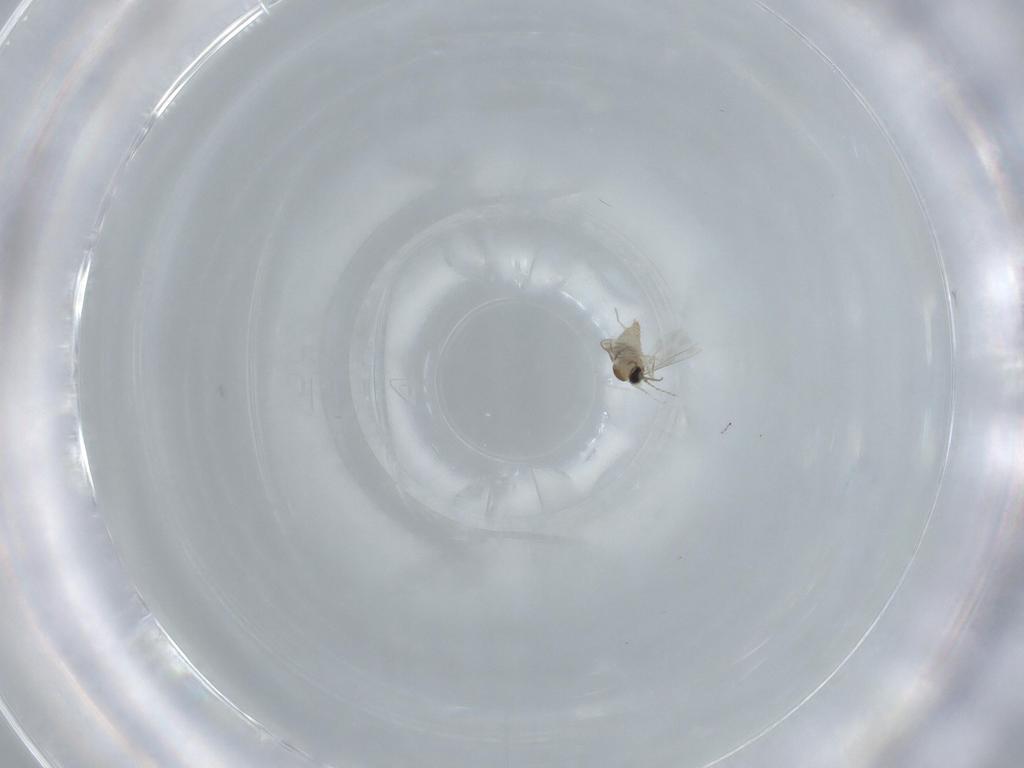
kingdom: Animalia
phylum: Arthropoda
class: Insecta
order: Diptera
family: Cecidomyiidae
